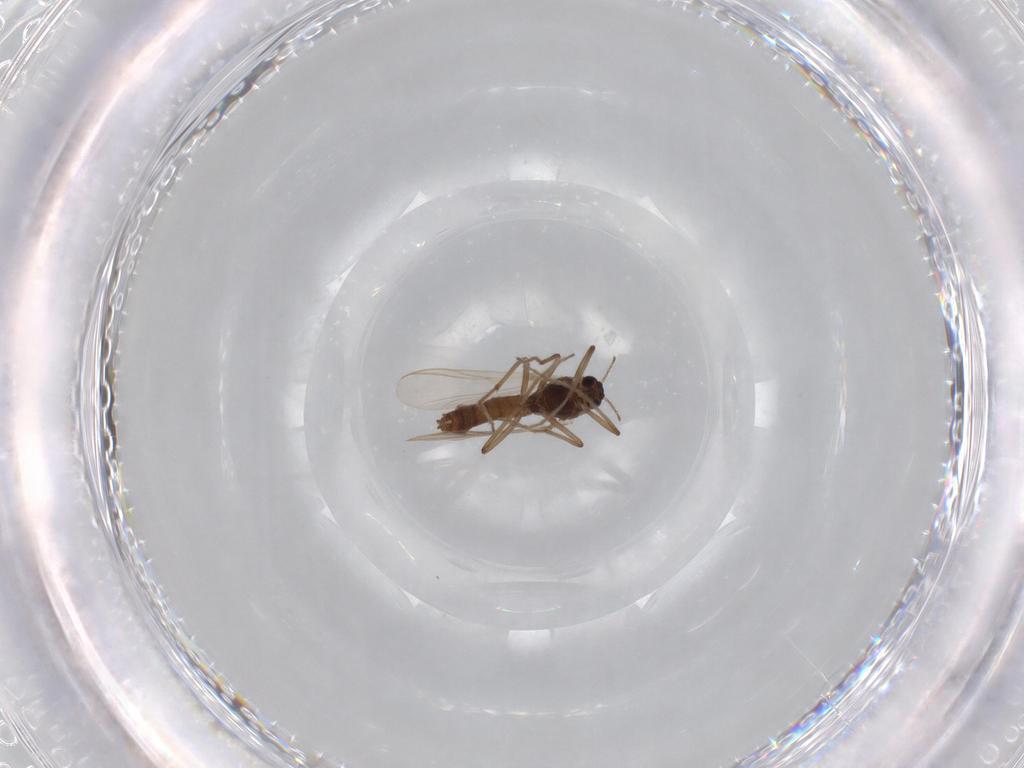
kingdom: Animalia
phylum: Arthropoda
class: Insecta
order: Diptera
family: Chironomidae
